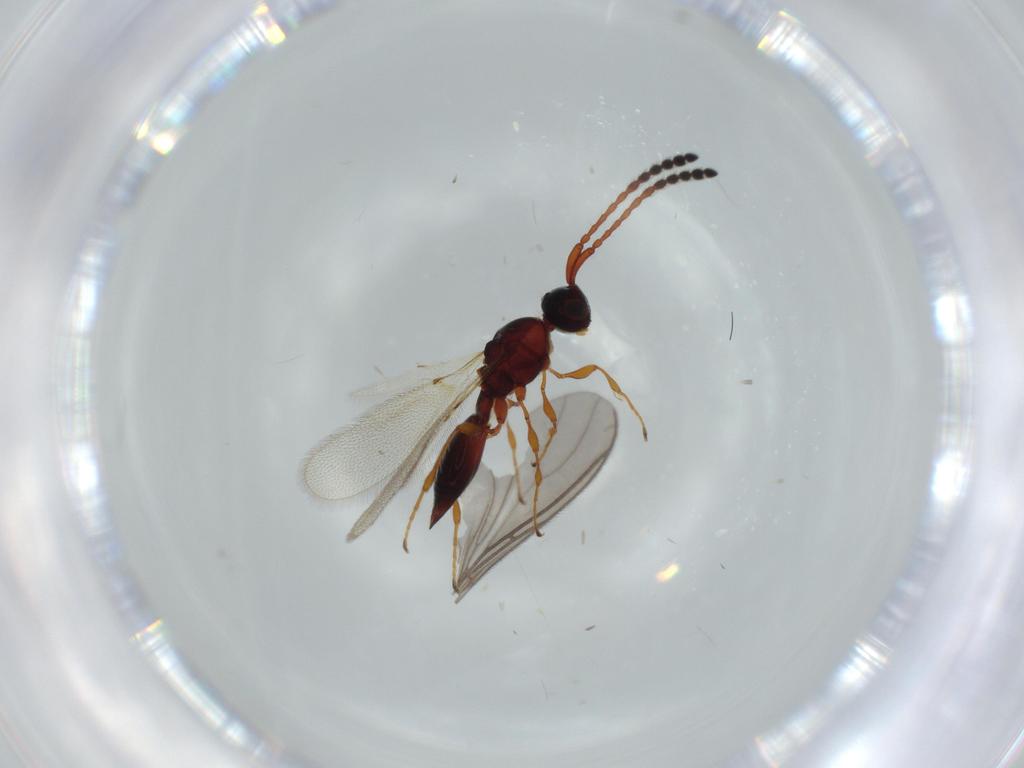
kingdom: Animalia
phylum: Arthropoda
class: Insecta
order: Hymenoptera
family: Diapriidae
